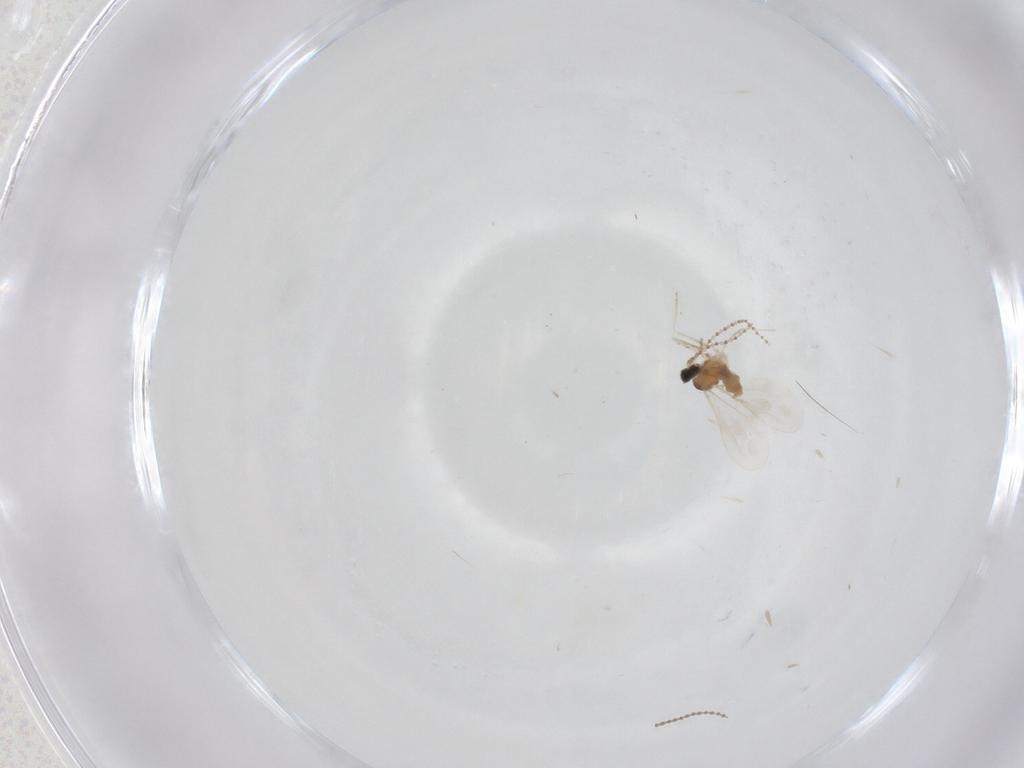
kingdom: Animalia
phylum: Arthropoda
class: Insecta
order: Diptera
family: Cecidomyiidae
